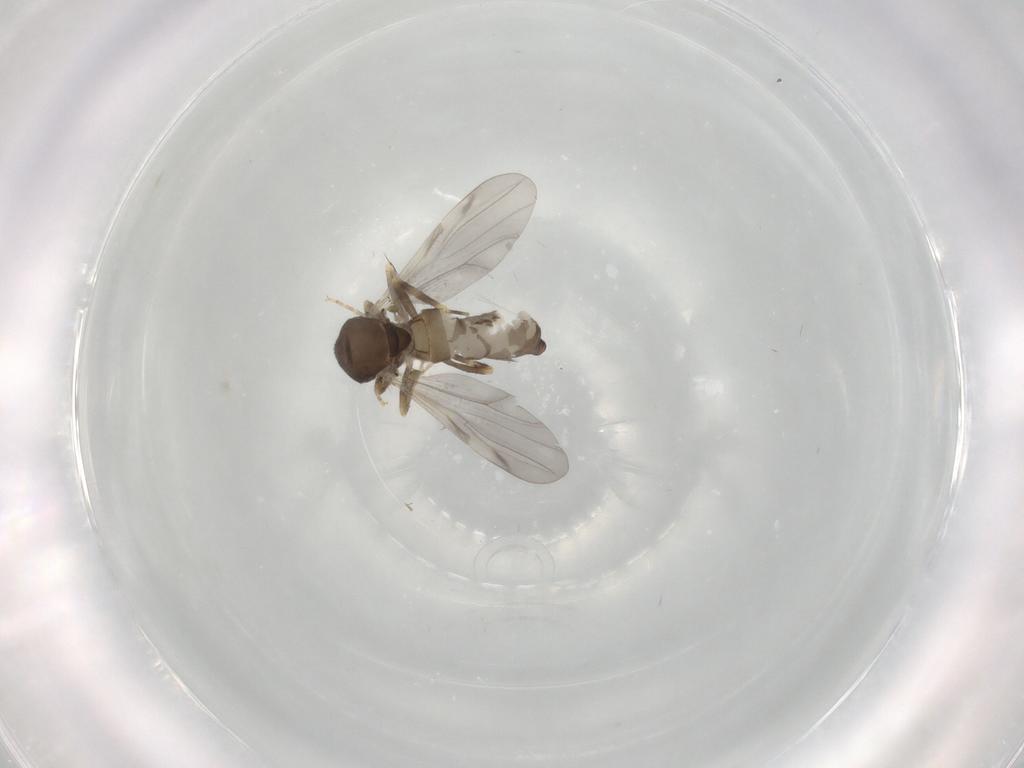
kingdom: Animalia
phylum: Arthropoda
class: Insecta
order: Diptera
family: Ceratopogonidae
